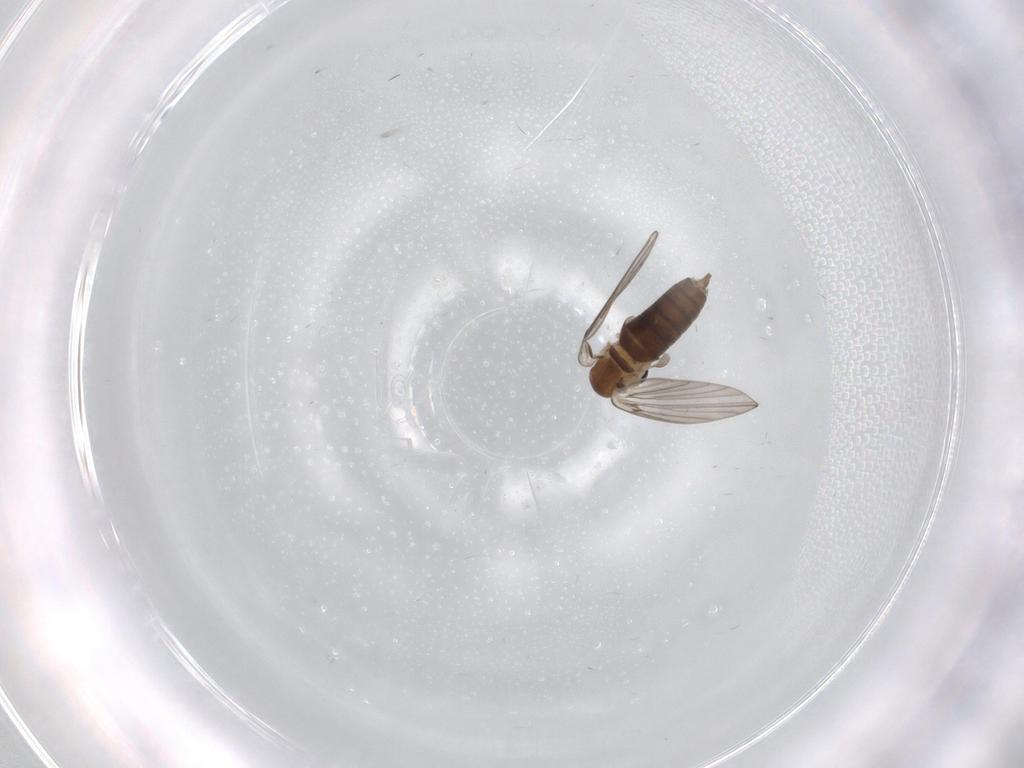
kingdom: Animalia
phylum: Arthropoda
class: Insecta
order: Diptera
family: Psychodidae
